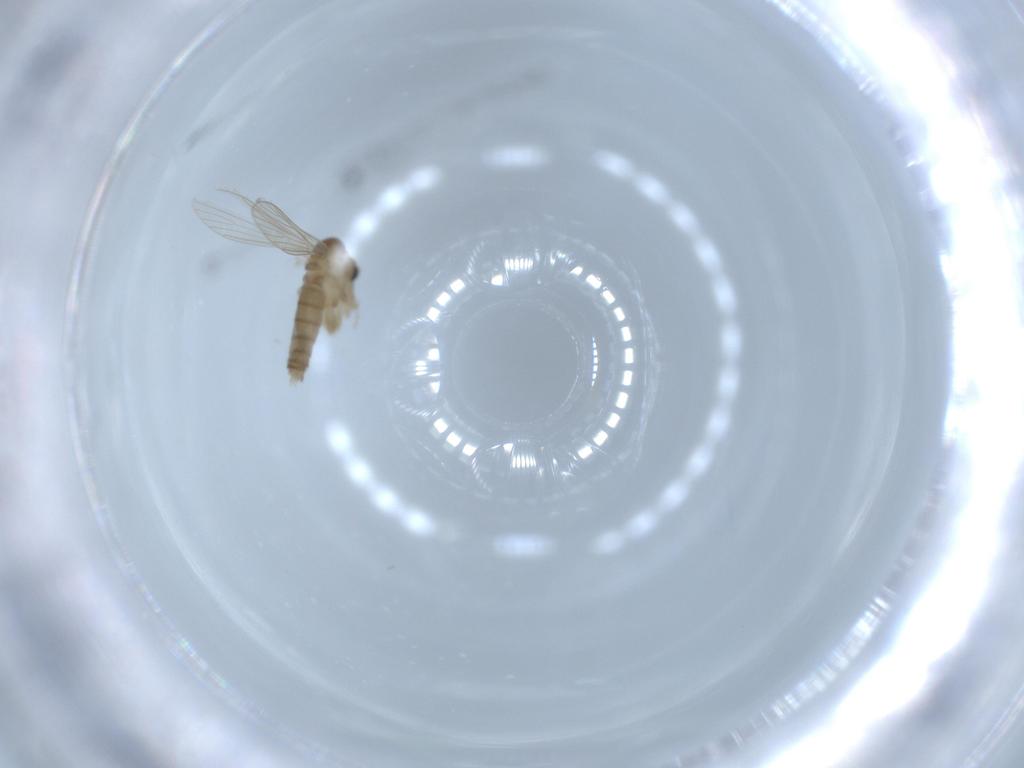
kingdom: Animalia
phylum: Arthropoda
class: Insecta
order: Diptera
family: Psychodidae
